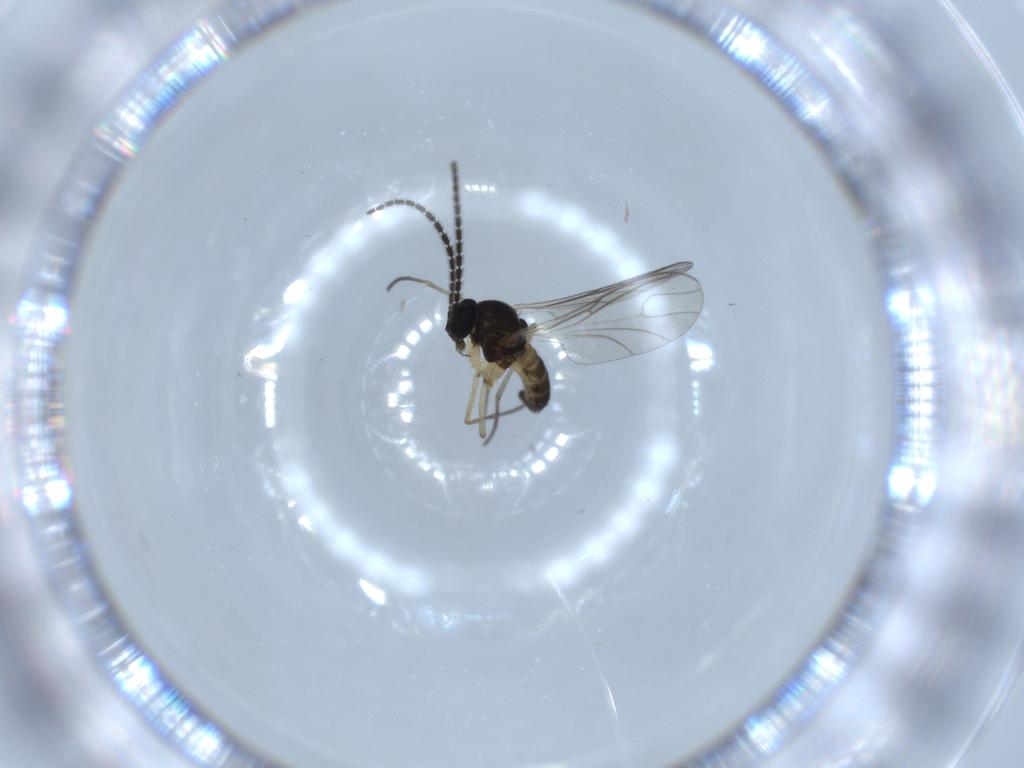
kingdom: Animalia
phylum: Arthropoda
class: Insecta
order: Diptera
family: Sciaridae
